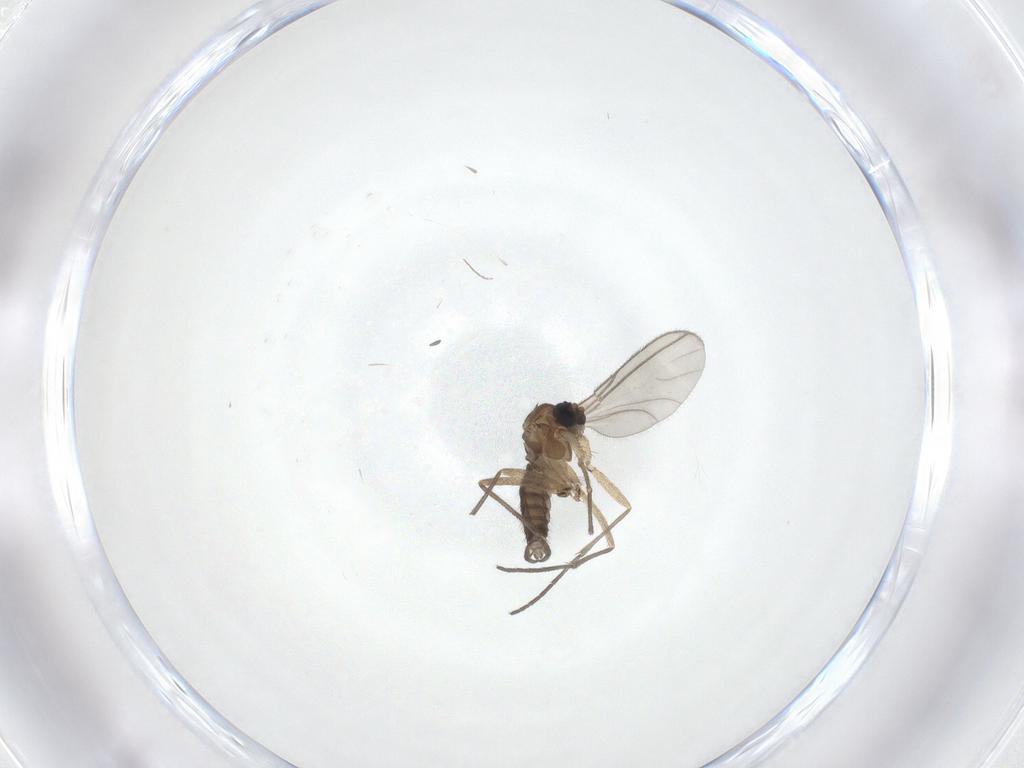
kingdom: Animalia
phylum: Arthropoda
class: Insecta
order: Diptera
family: Sciaridae
